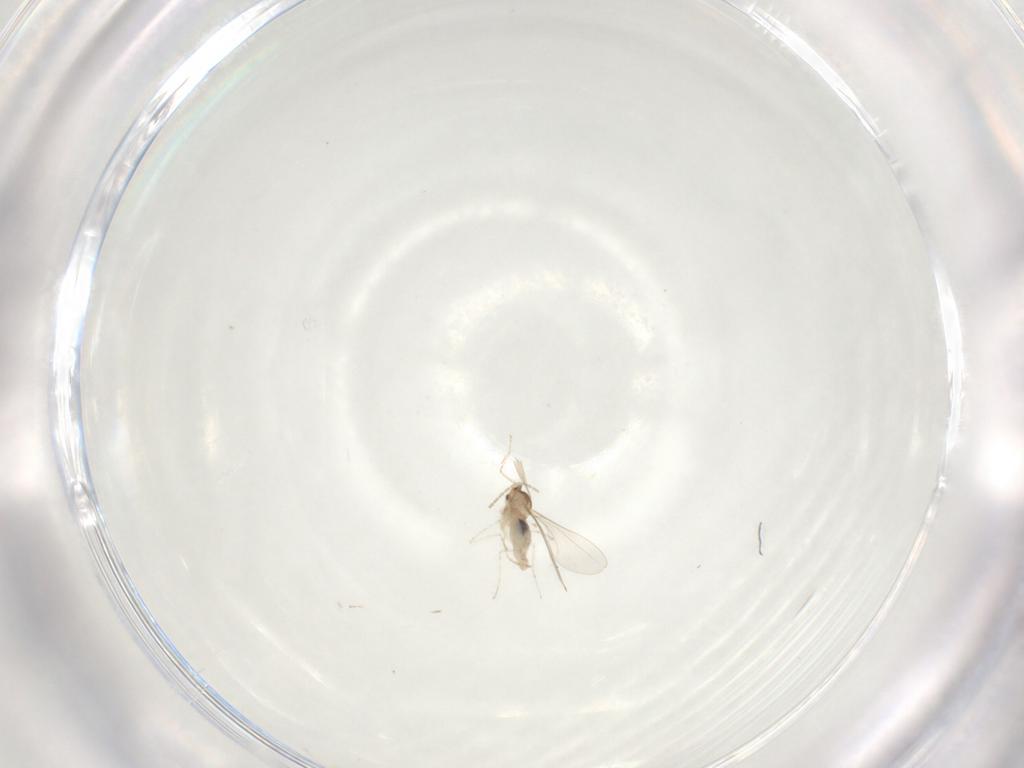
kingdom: Animalia
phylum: Arthropoda
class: Insecta
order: Diptera
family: Cecidomyiidae
